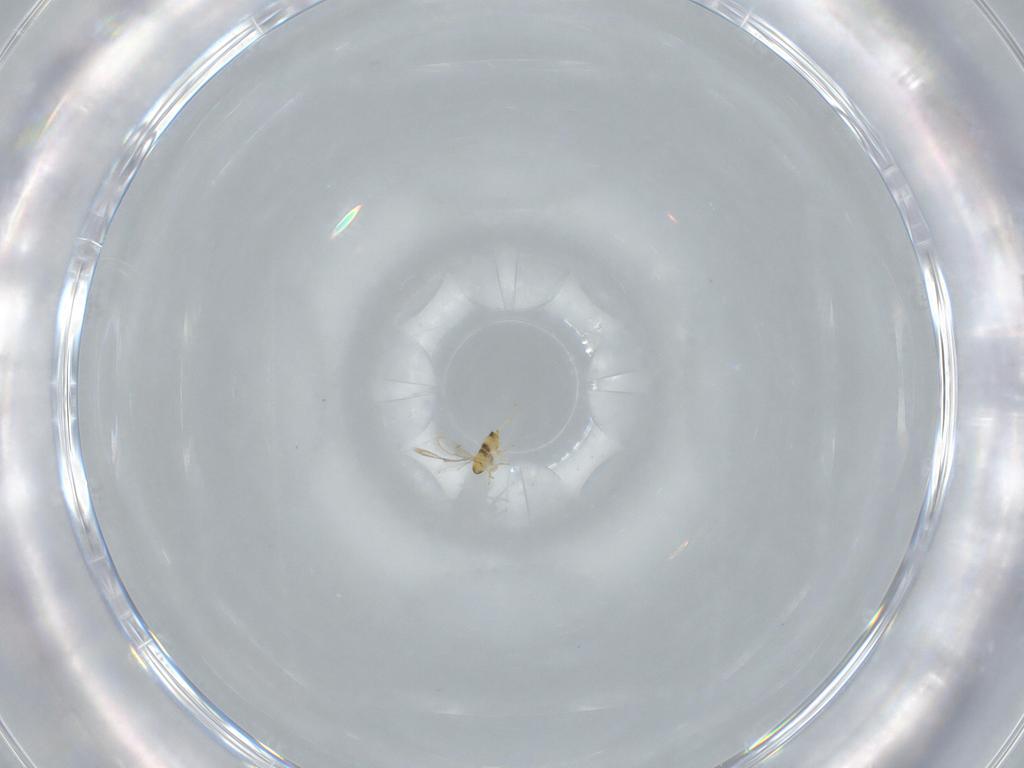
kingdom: Animalia
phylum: Arthropoda
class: Insecta
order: Hymenoptera
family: Aphelinidae
